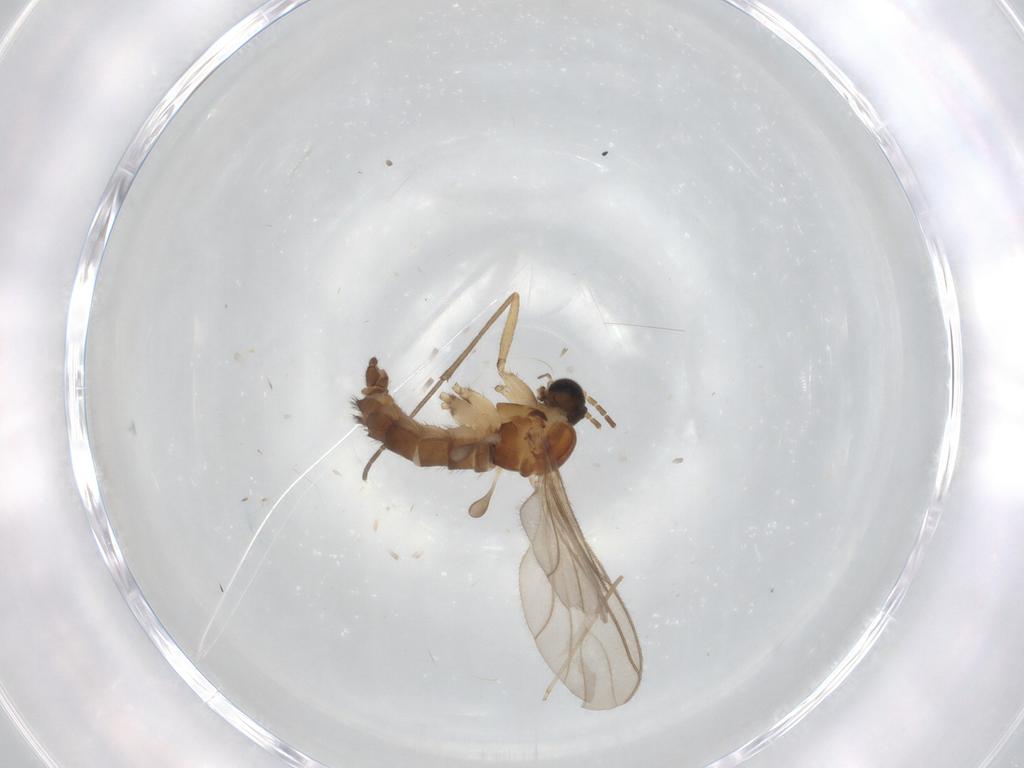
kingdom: Animalia
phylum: Arthropoda
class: Insecta
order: Diptera
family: Sciaridae
